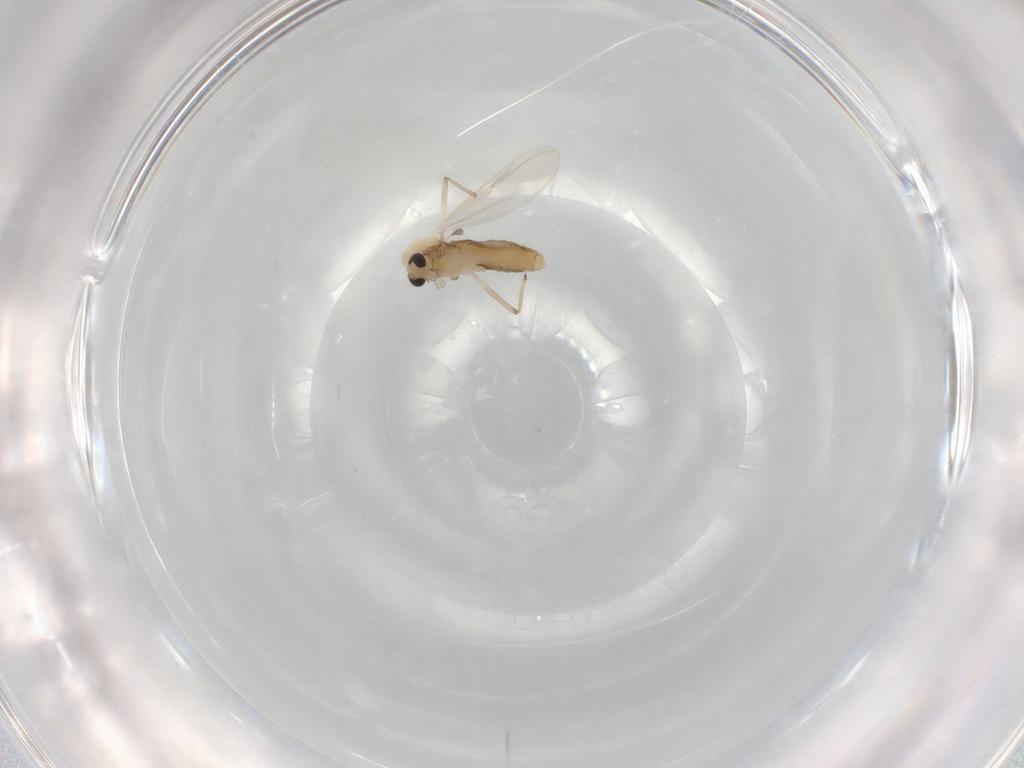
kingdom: Animalia
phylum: Arthropoda
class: Insecta
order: Diptera
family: Chironomidae
